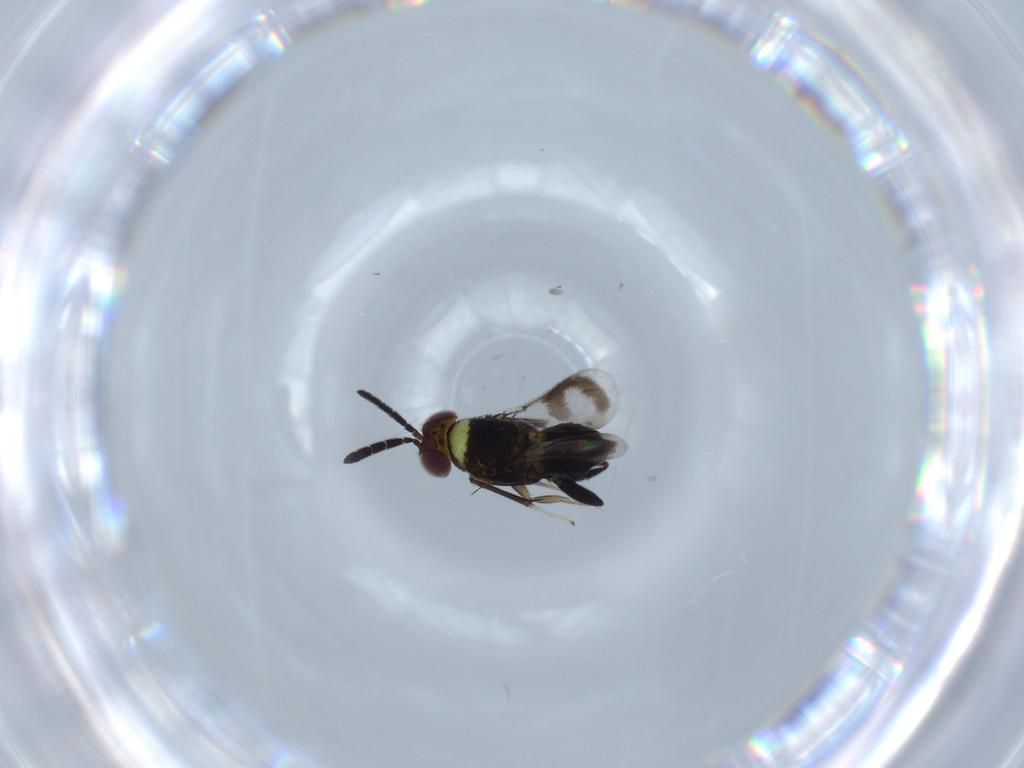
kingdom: Animalia
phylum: Arthropoda
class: Insecta
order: Hymenoptera
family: Aphelinidae
